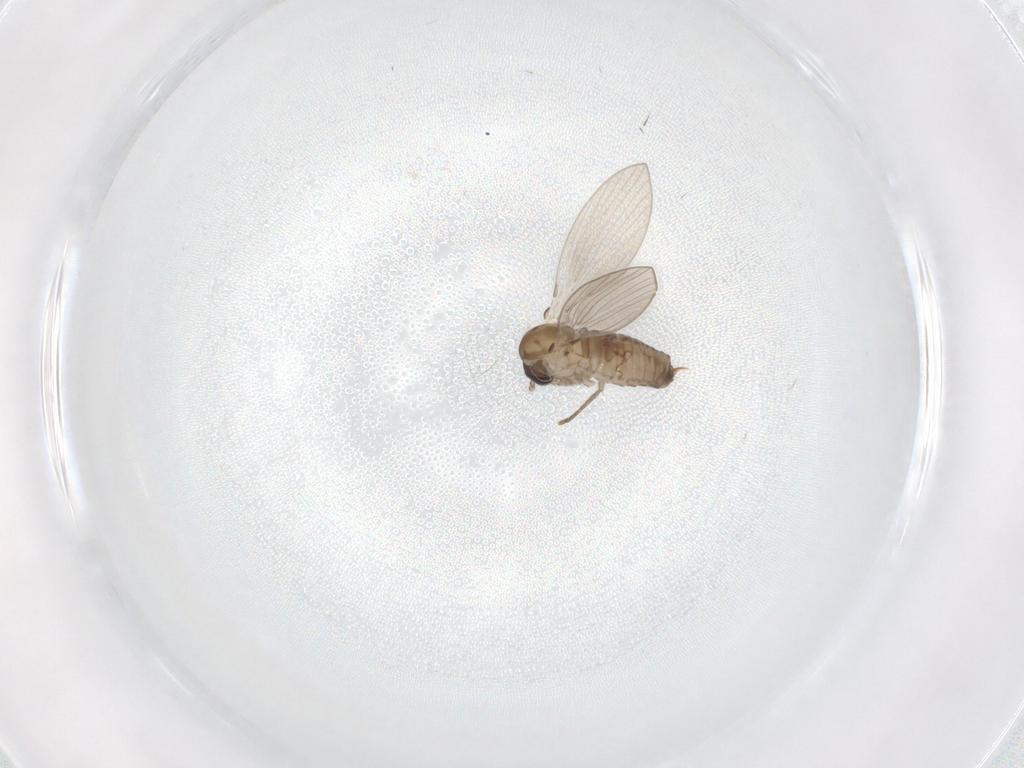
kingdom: Animalia
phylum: Arthropoda
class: Insecta
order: Diptera
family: Psychodidae
